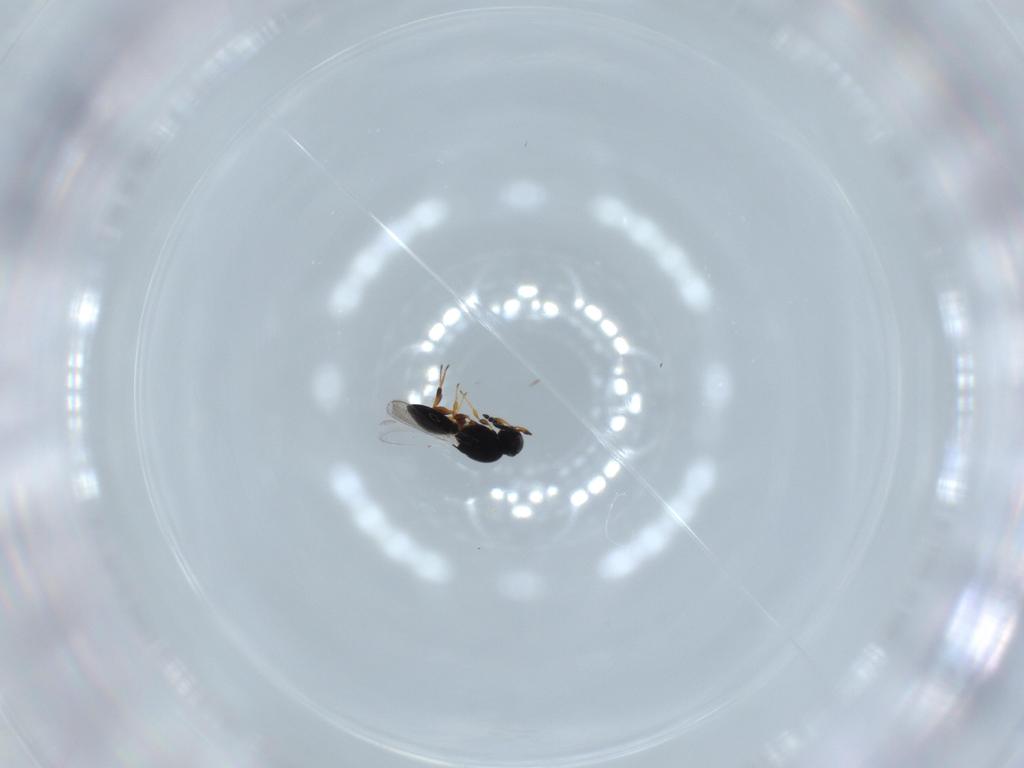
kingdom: Animalia
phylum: Arthropoda
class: Insecta
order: Hymenoptera
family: Platygastridae
